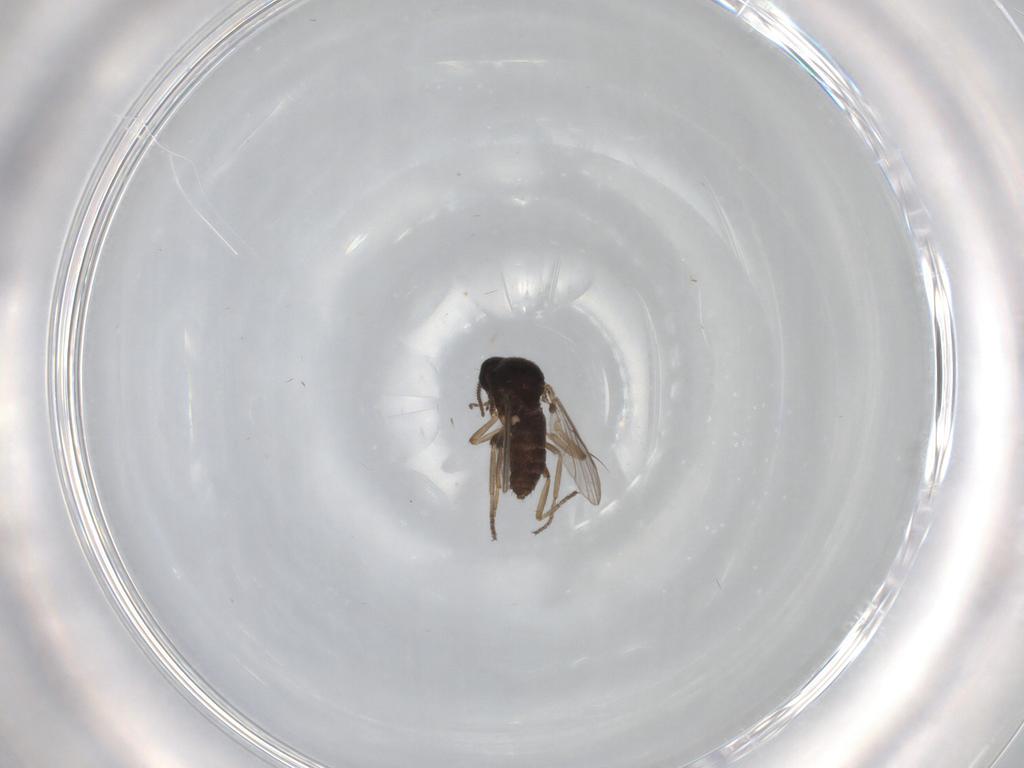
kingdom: Animalia
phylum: Arthropoda
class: Insecta
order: Diptera
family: Ceratopogonidae
